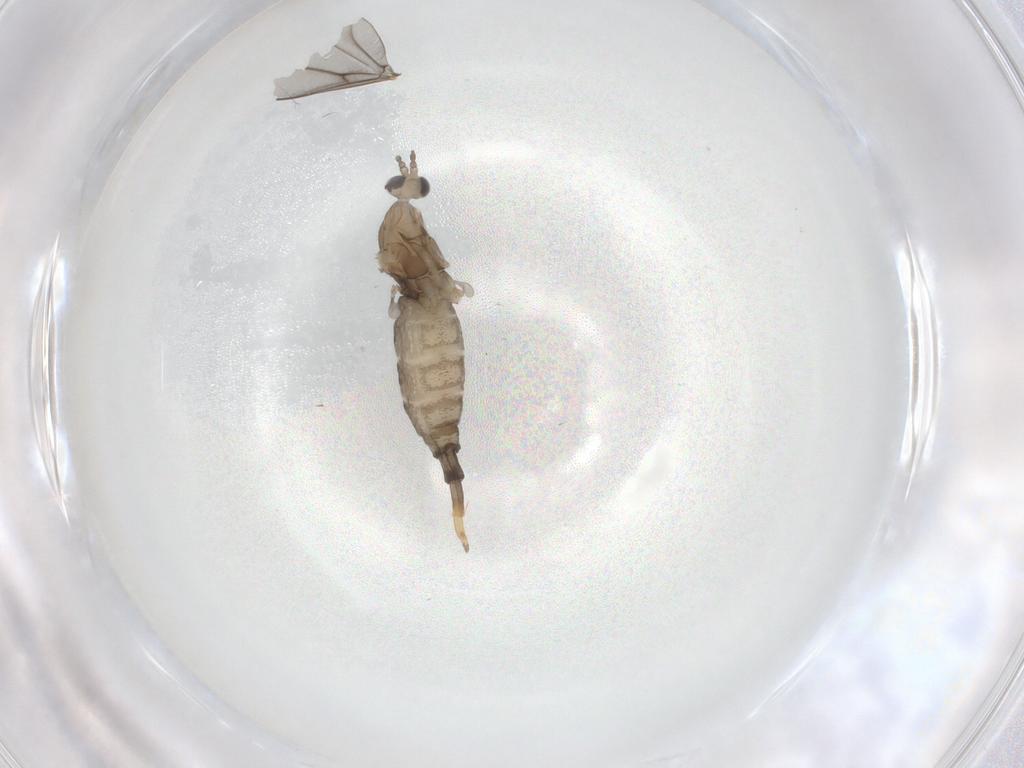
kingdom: Animalia
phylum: Arthropoda
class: Insecta
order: Diptera
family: Cecidomyiidae
